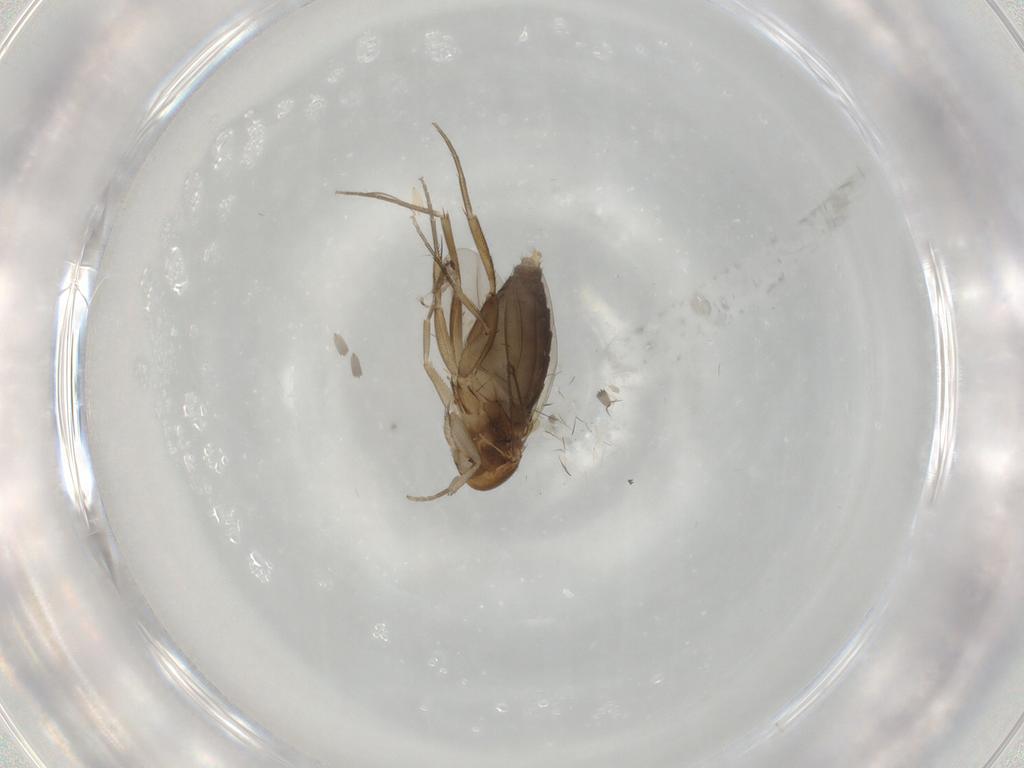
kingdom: Animalia
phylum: Arthropoda
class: Insecta
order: Diptera
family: Phoridae
